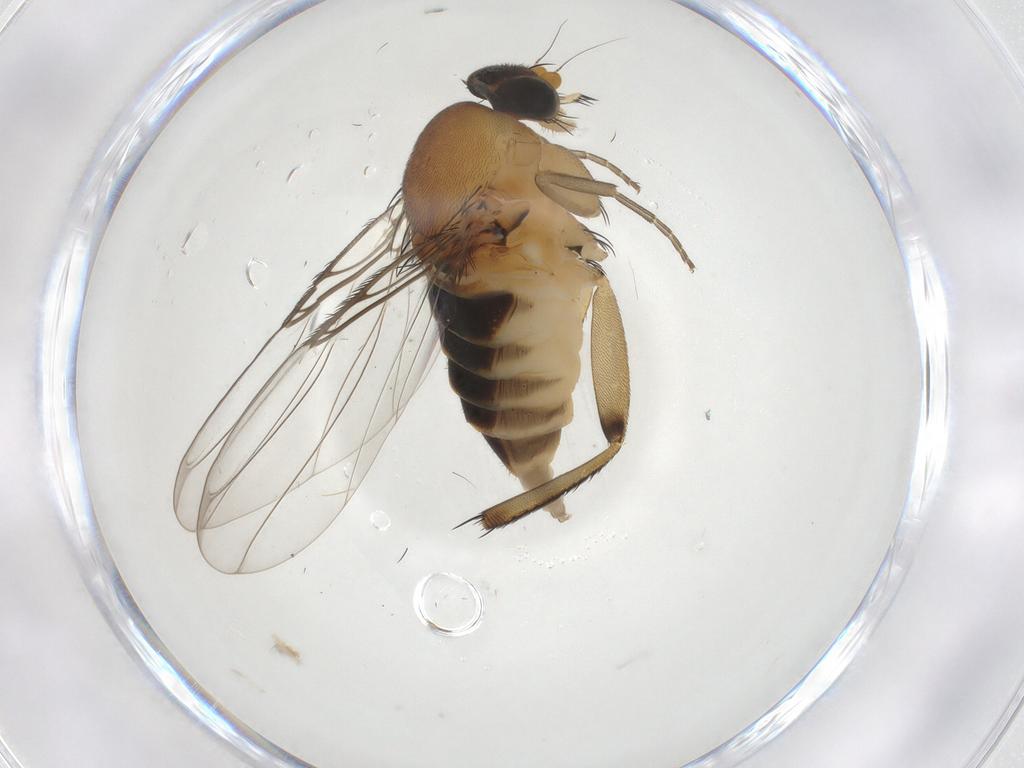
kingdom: Animalia
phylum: Arthropoda
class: Insecta
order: Diptera
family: Phoridae
